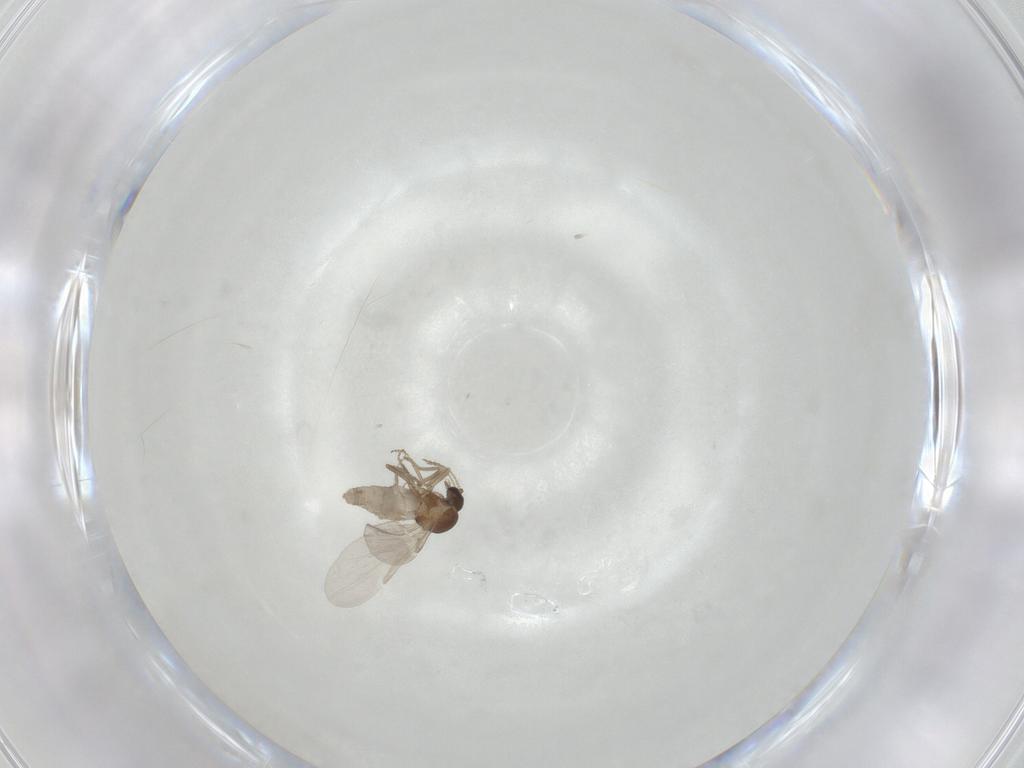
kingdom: Animalia
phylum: Arthropoda
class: Insecta
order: Diptera
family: Ceratopogonidae
